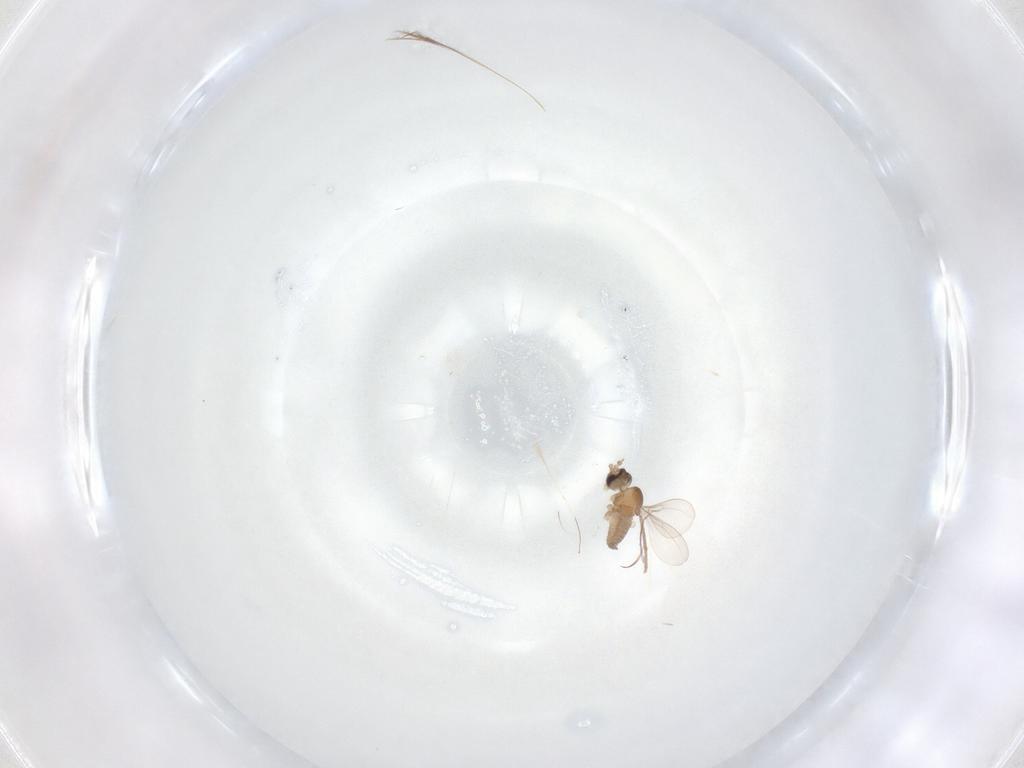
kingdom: Animalia
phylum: Arthropoda
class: Insecta
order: Diptera
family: Cecidomyiidae
